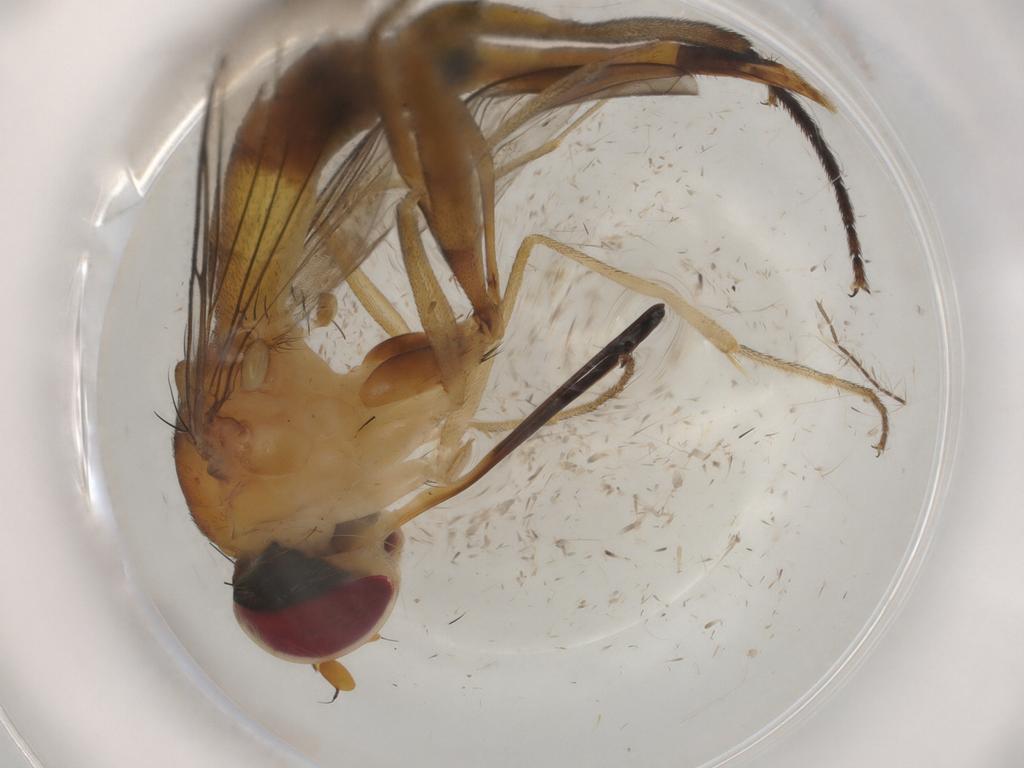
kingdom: Animalia
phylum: Arthropoda
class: Insecta
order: Diptera
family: Conopidae
